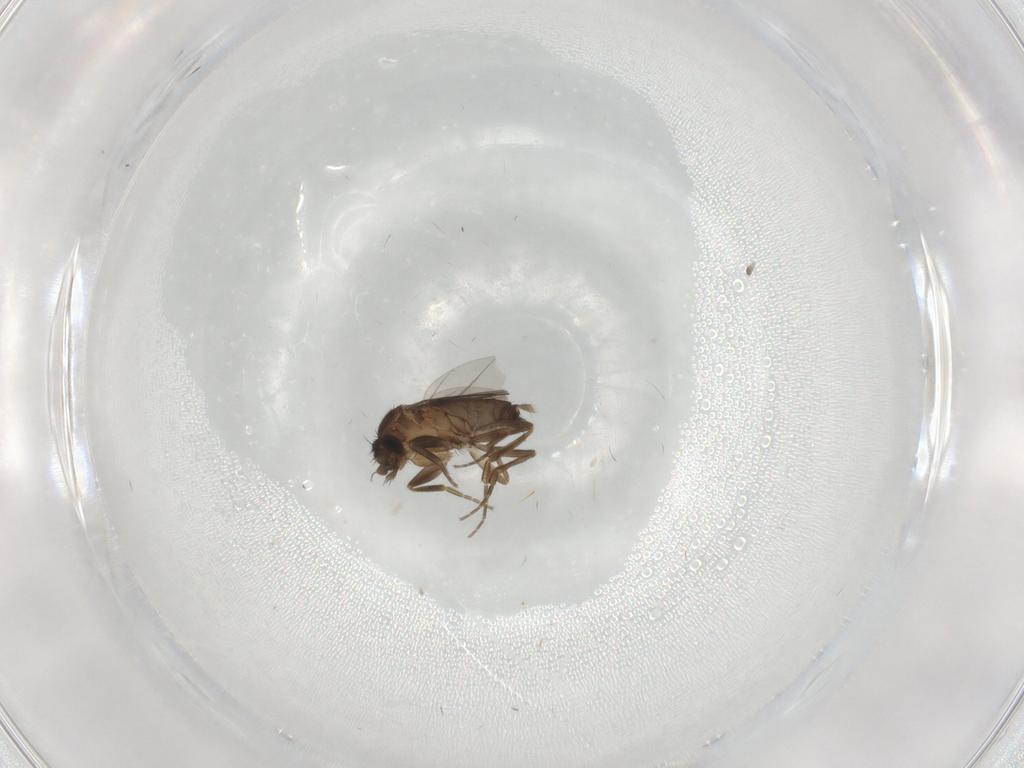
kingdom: Animalia
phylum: Arthropoda
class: Insecta
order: Diptera
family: Phoridae
